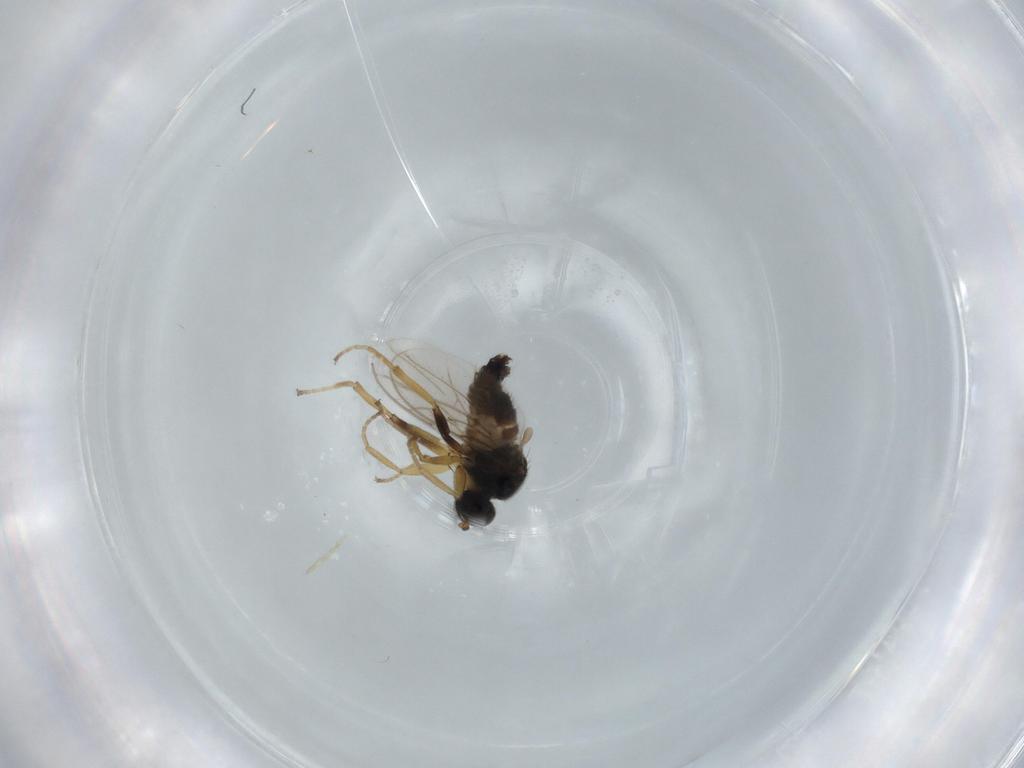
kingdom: Animalia
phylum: Arthropoda
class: Insecta
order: Diptera
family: Hybotidae
